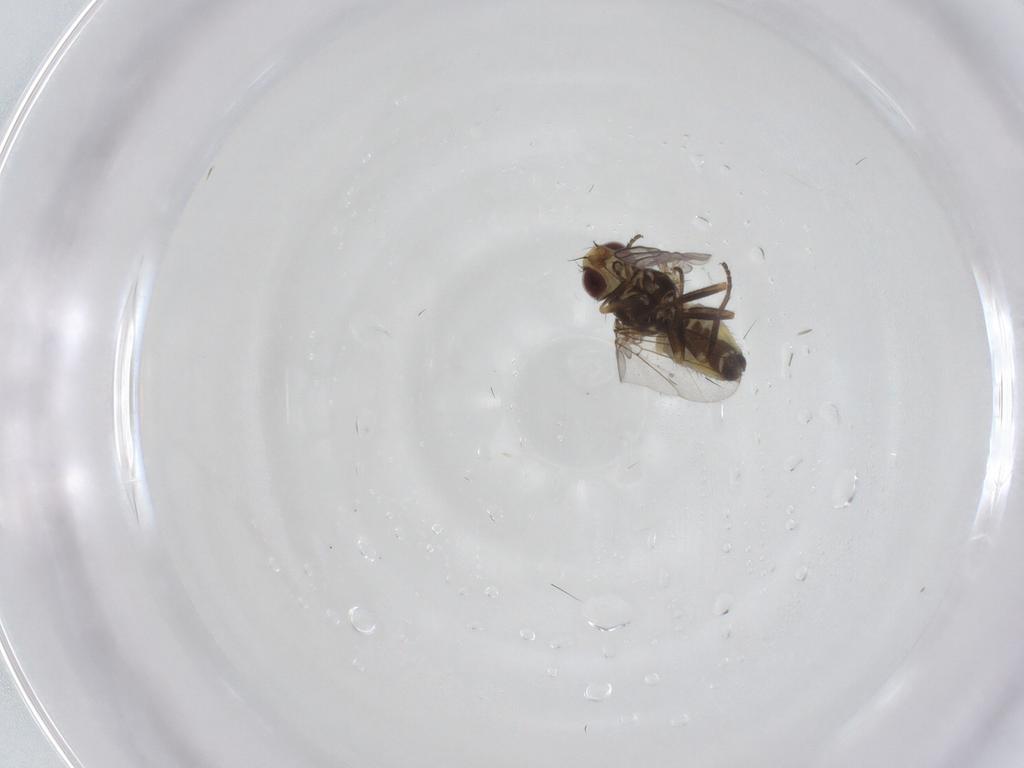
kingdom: Animalia
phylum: Arthropoda
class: Insecta
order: Diptera
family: Agromyzidae
